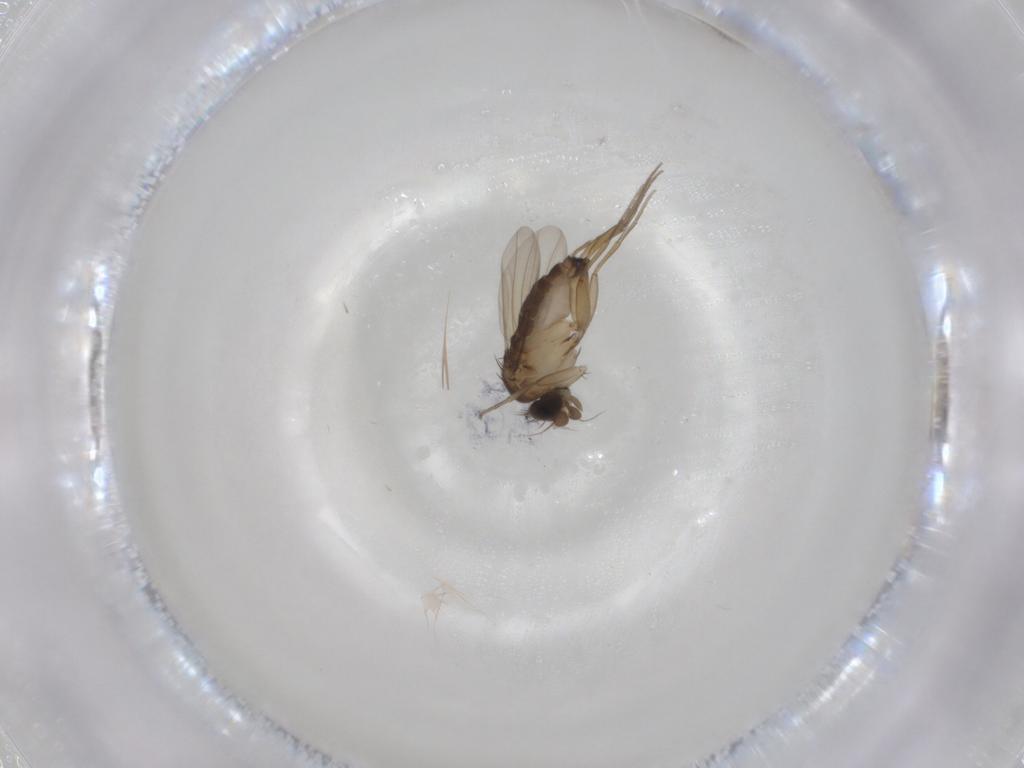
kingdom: Animalia
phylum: Arthropoda
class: Insecta
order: Diptera
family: Phoridae
